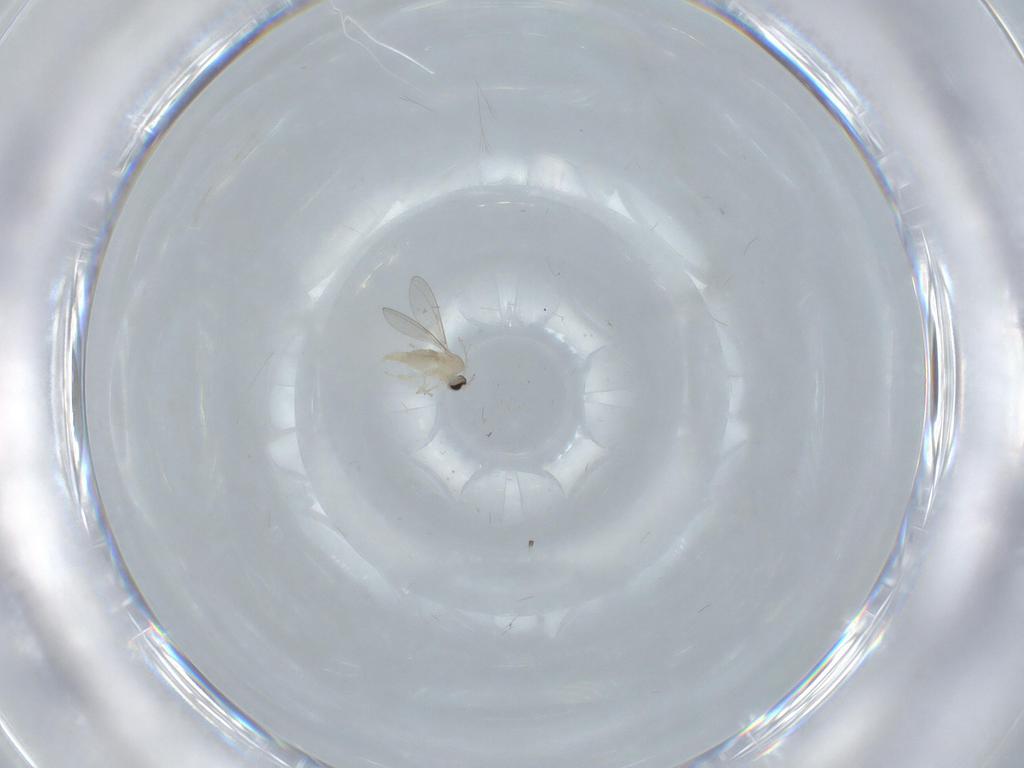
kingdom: Animalia
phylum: Arthropoda
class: Insecta
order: Diptera
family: Cecidomyiidae
